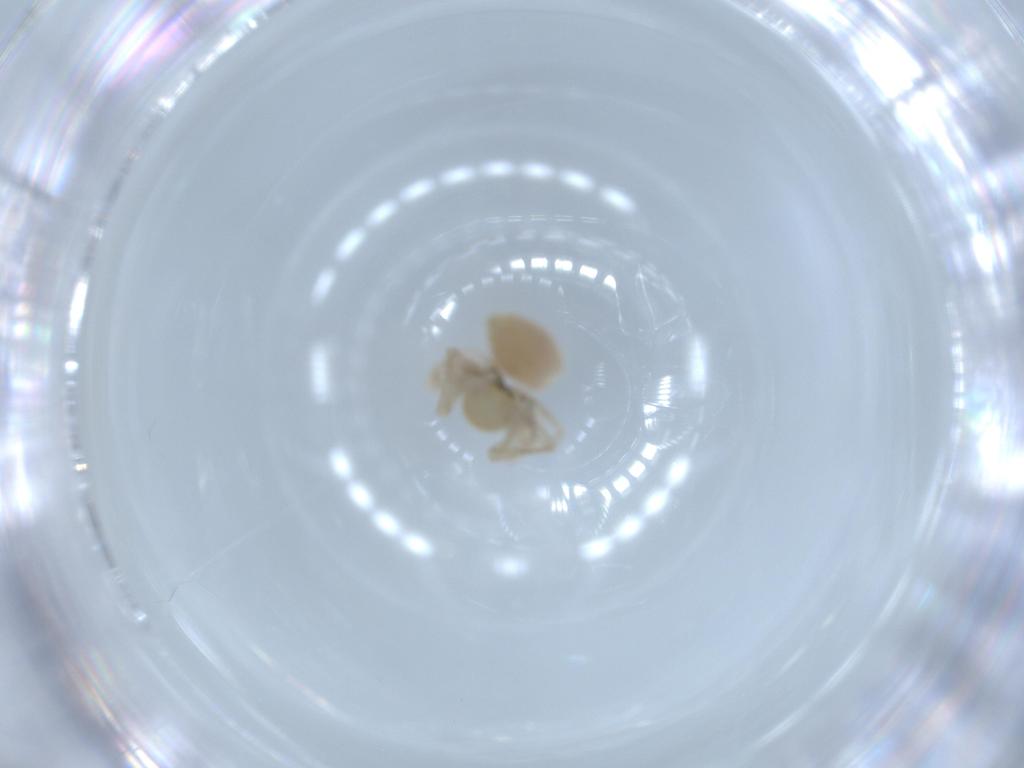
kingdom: Animalia
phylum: Arthropoda
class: Arachnida
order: Araneae
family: Anyphaenidae
